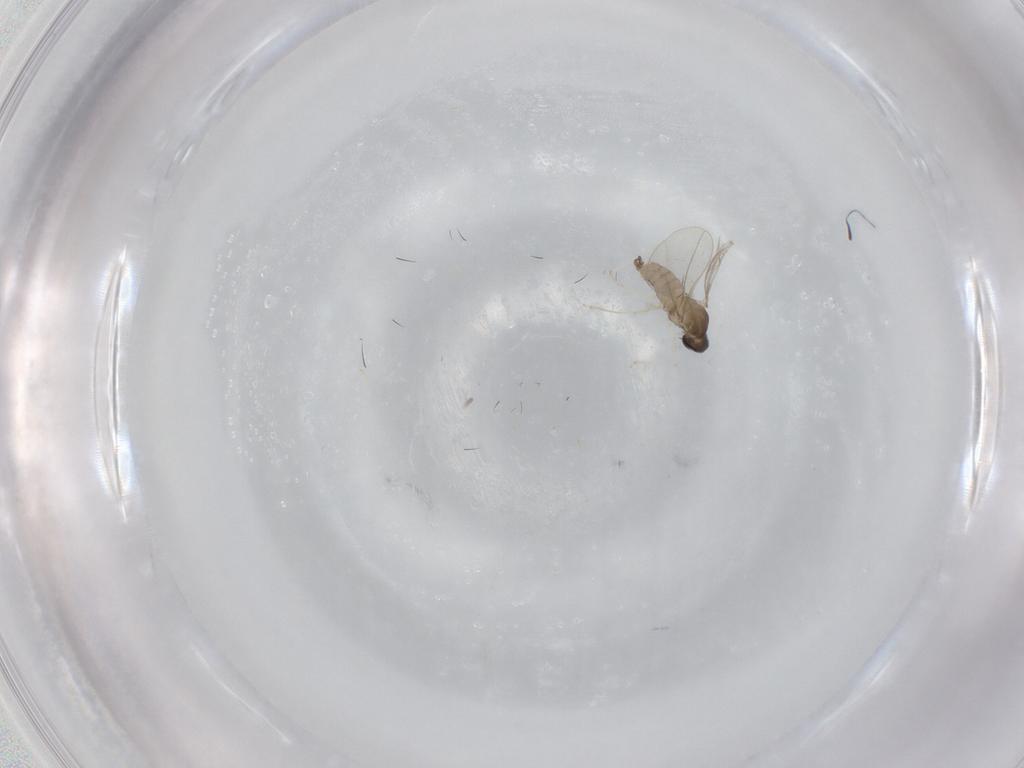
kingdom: Animalia
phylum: Arthropoda
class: Insecta
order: Diptera
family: Cecidomyiidae
